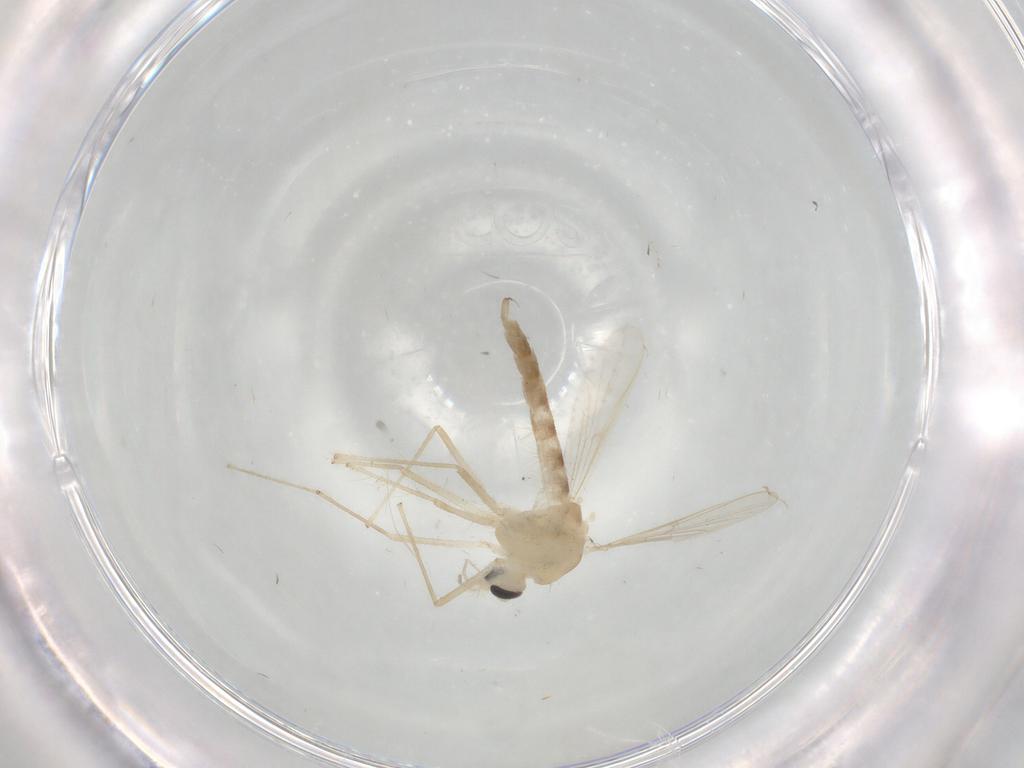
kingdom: Animalia
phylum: Arthropoda
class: Insecta
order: Diptera
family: Chironomidae
